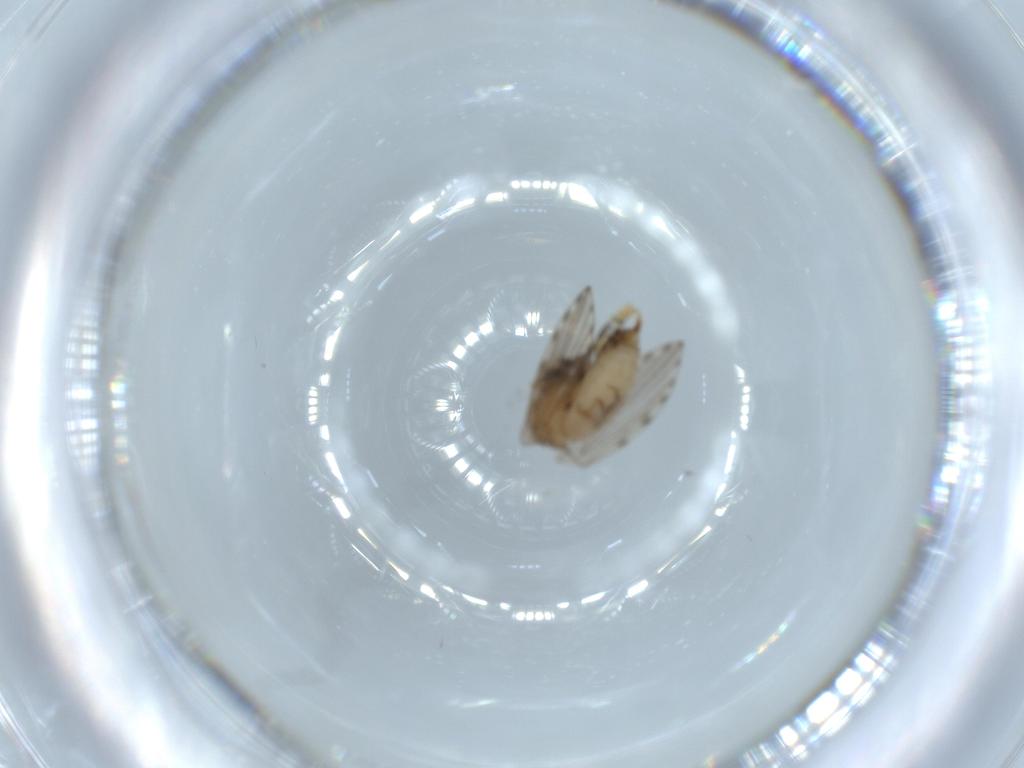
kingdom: Animalia
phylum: Arthropoda
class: Insecta
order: Diptera
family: Psychodidae
